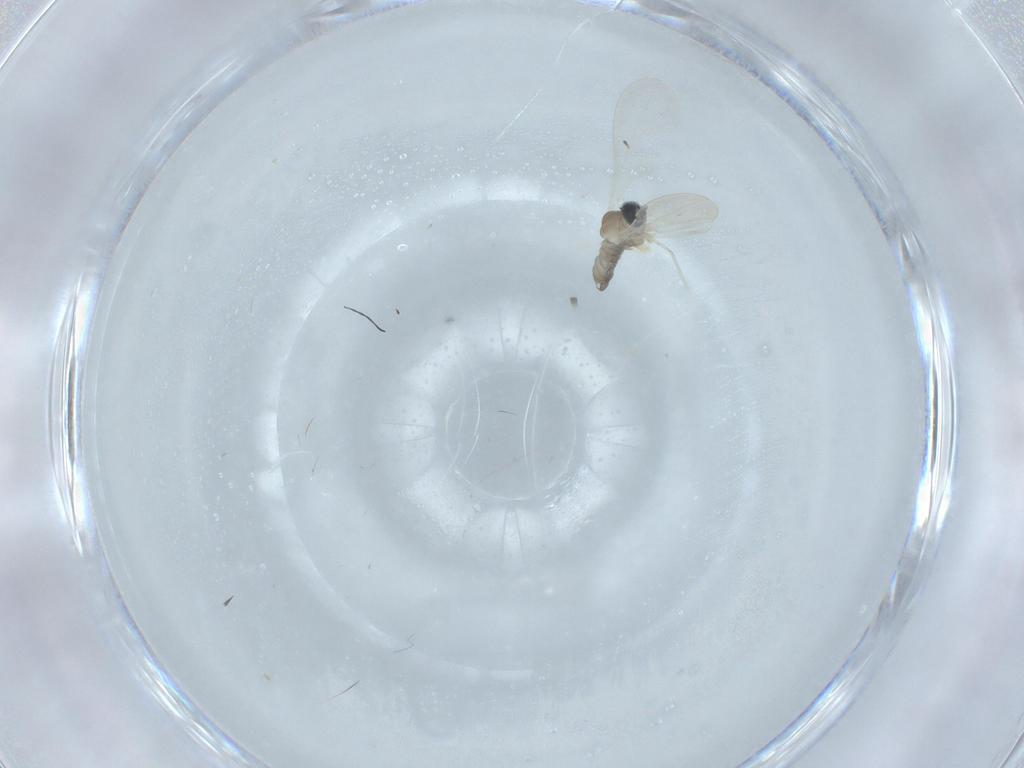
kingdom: Animalia
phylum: Arthropoda
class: Insecta
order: Diptera
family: Cecidomyiidae
